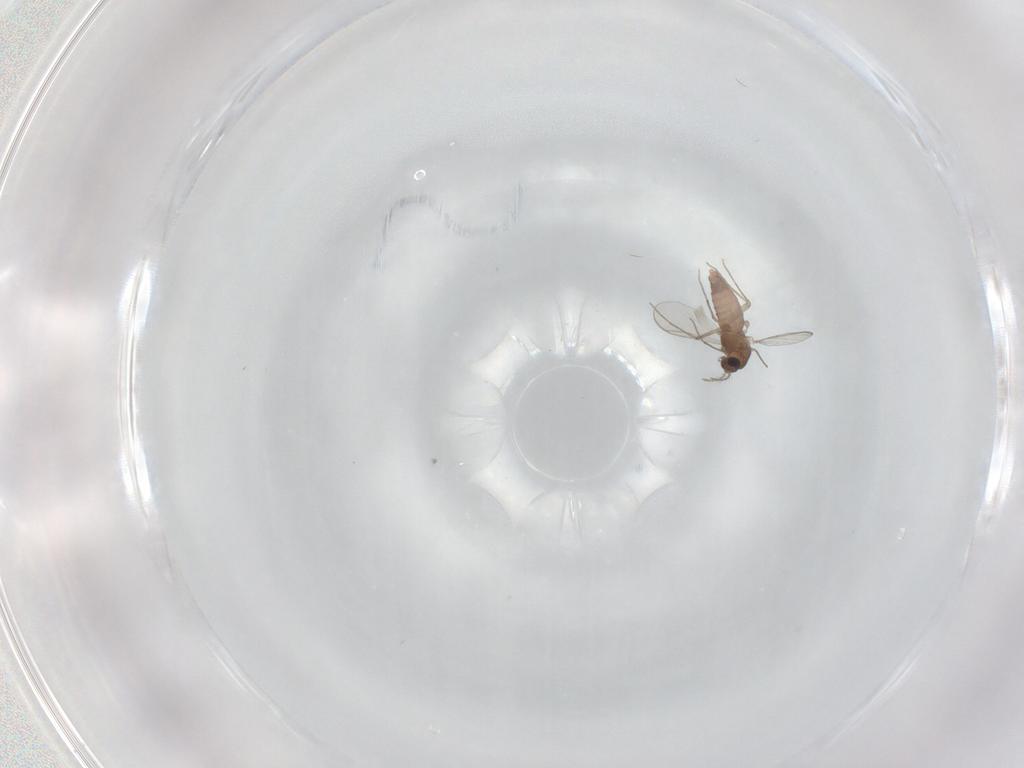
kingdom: Animalia
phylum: Arthropoda
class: Insecta
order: Diptera
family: Chironomidae
